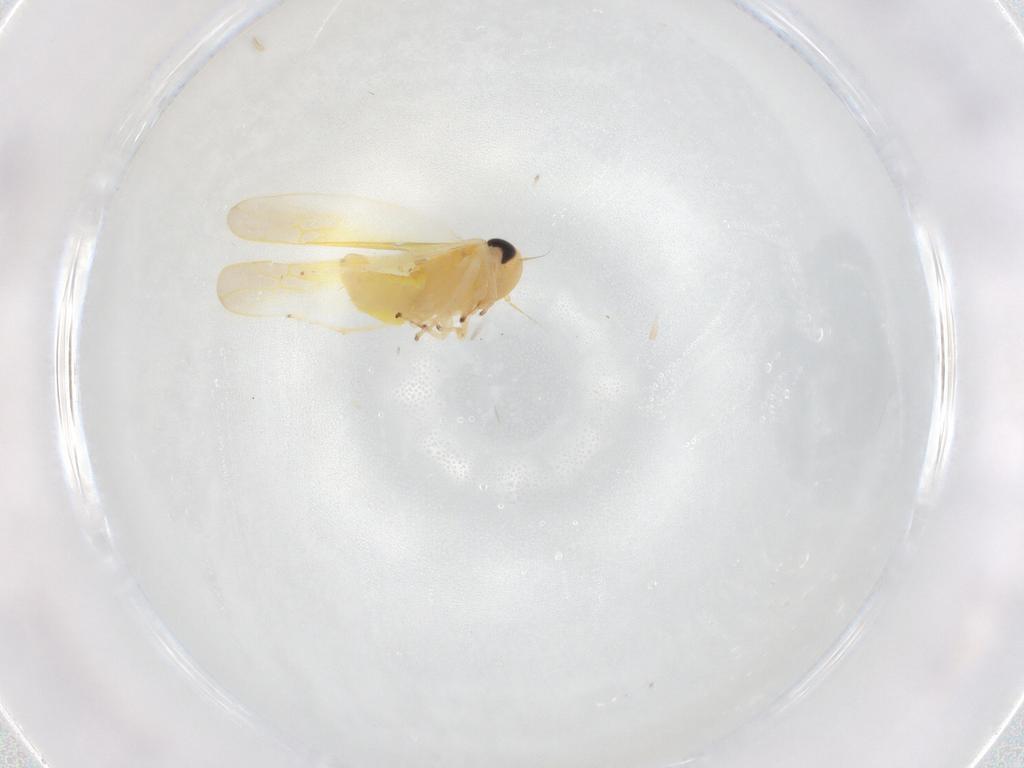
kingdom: Animalia
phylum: Arthropoda
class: Insecta
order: Hemiptera
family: Cicadellidae
